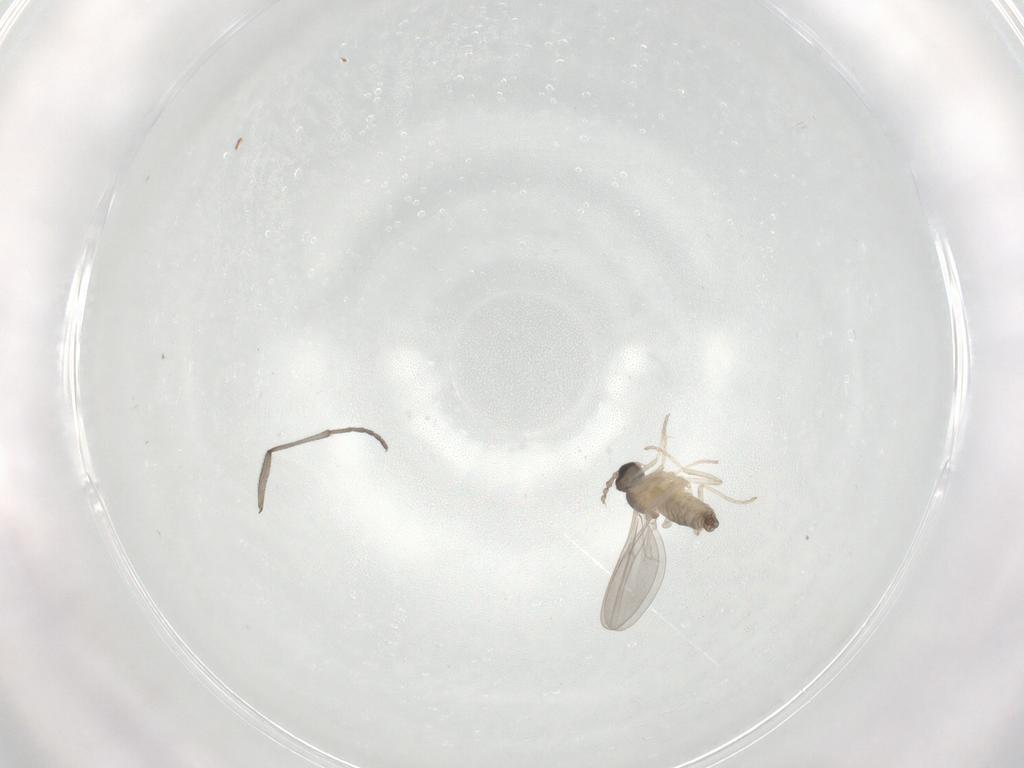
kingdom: Animalia
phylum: Arthropoda
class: Insecta
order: Diptera
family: Cecidomyiidae
